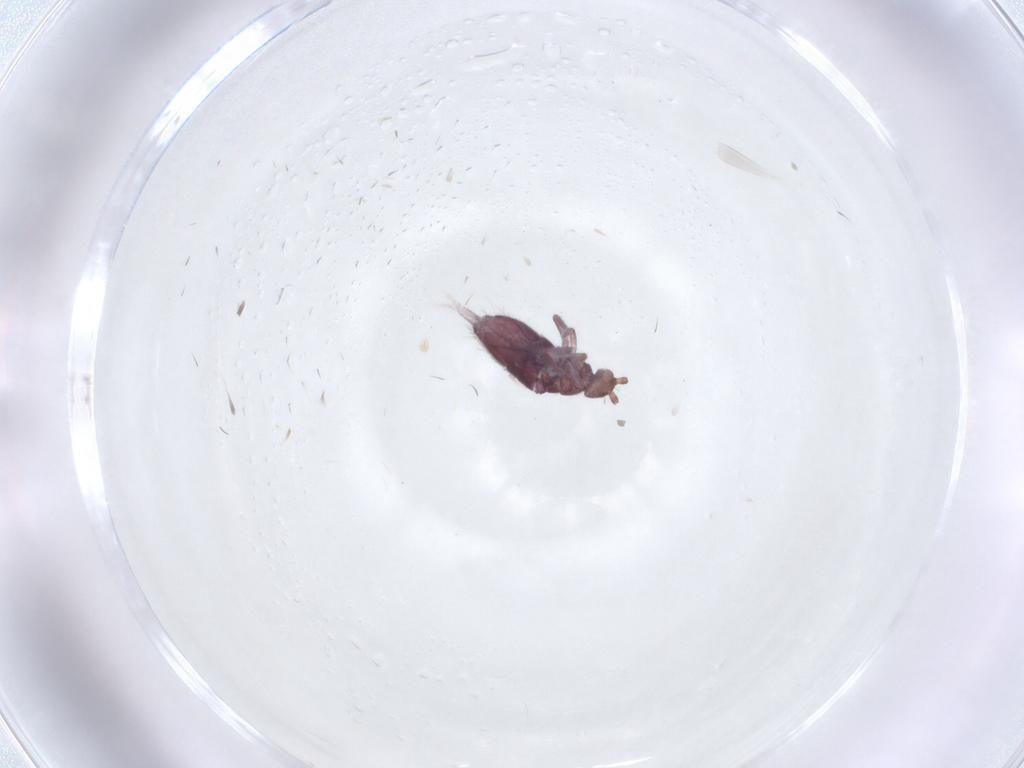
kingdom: Animalia
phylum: Arthropoda
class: Collembola
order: Entomobryomorpha
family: Entomobryidae
